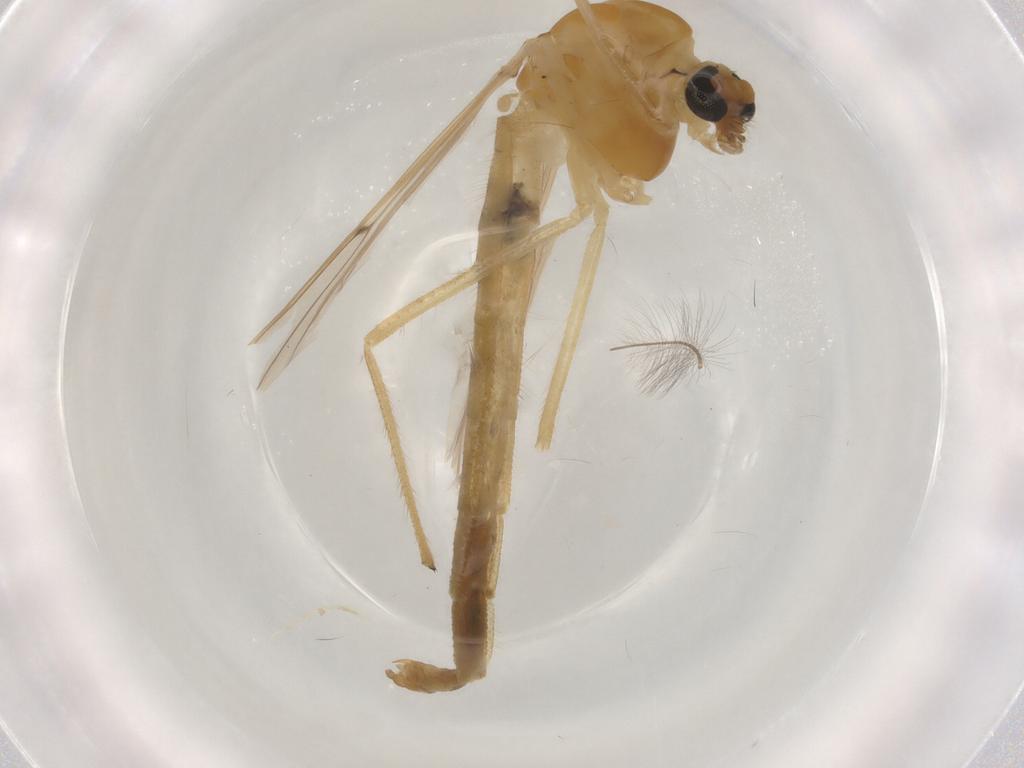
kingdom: Animalia
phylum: Arthropoda
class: Insecta
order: Diptera
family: Chironomidae
